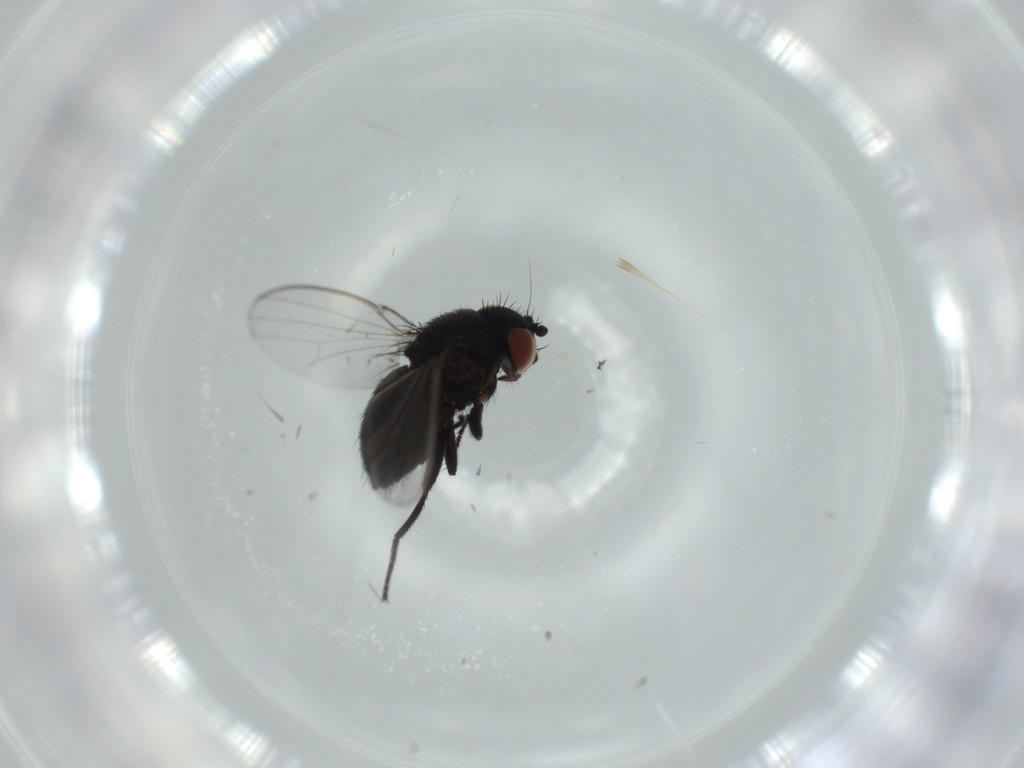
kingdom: Animalia
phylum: Arthropoda
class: Insecta
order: Diptera
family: Milichiidae
